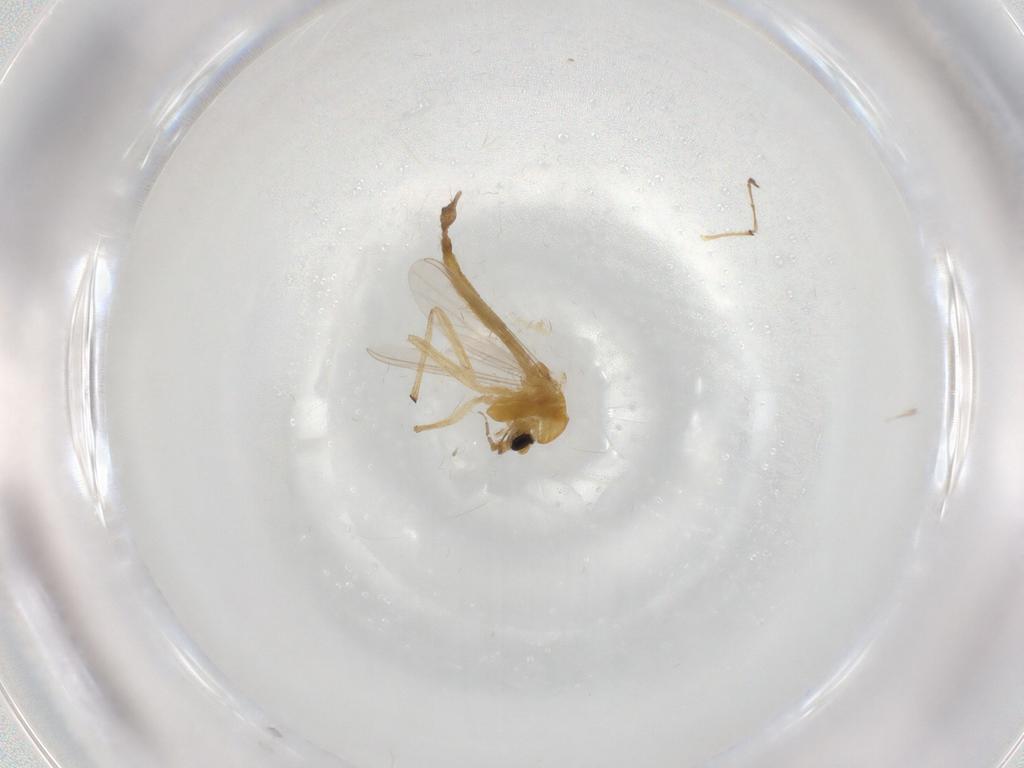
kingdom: Animalia
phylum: Arthropoda
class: Insecta
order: Diptera
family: Chironomidae
